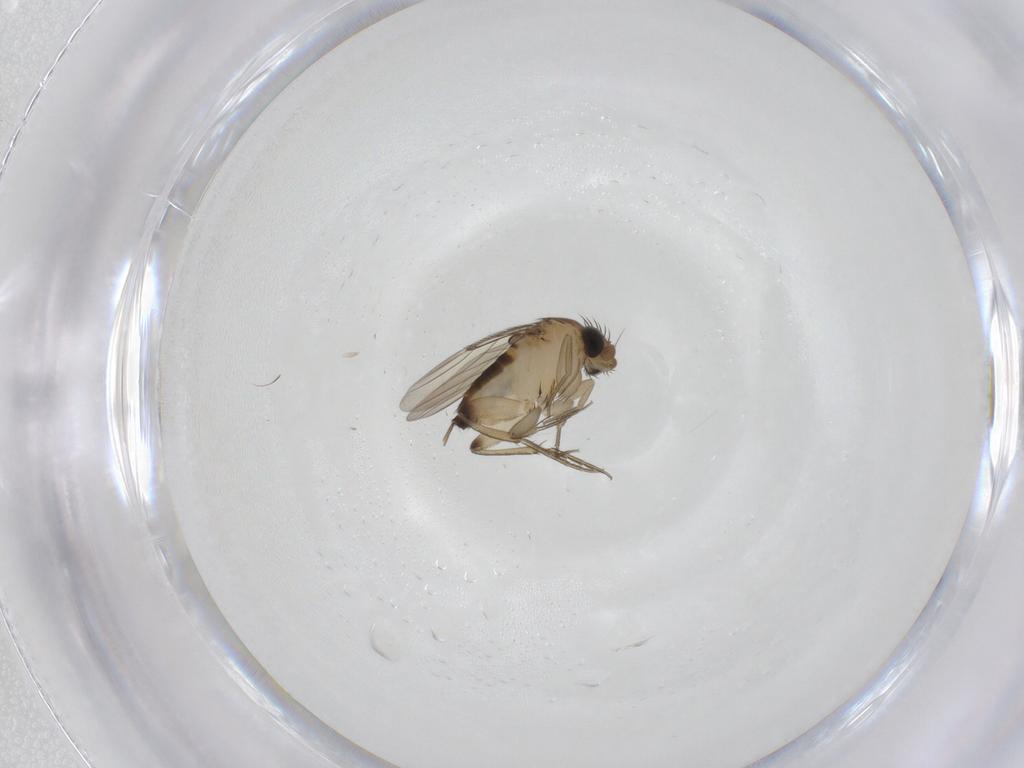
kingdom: Animalia
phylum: Arthropoda
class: Insecta
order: Diptera
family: Phoridae
